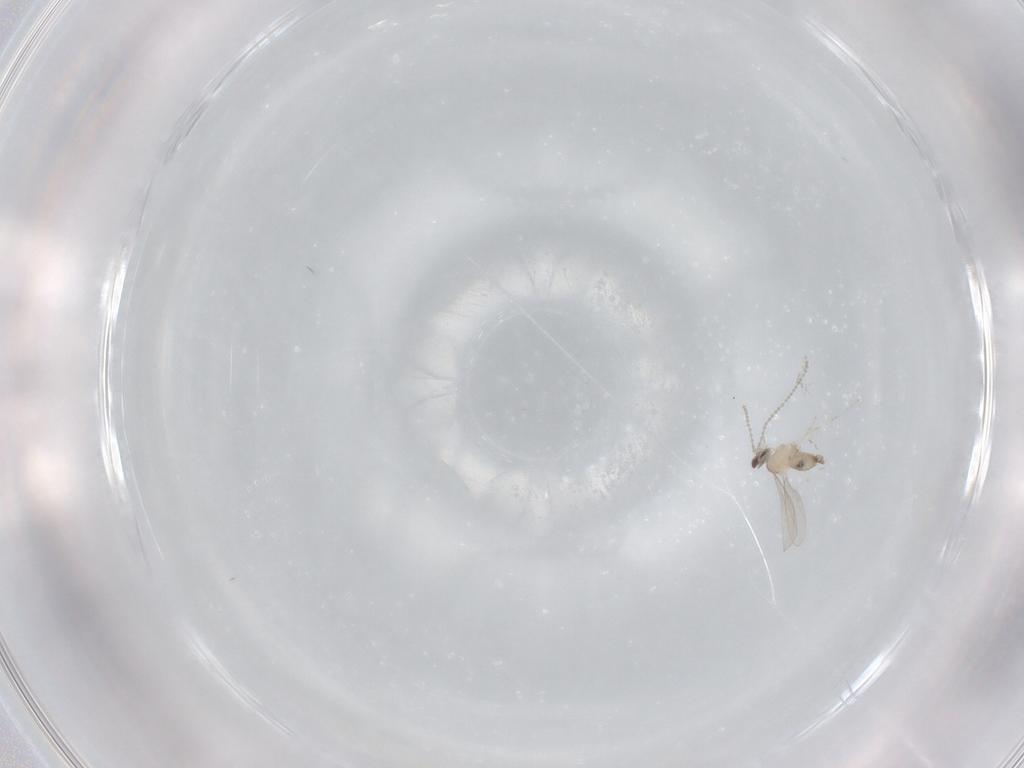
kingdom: Animalia
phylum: Arthropoda
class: Insecta
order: Diptera
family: Cecidomyiidae
